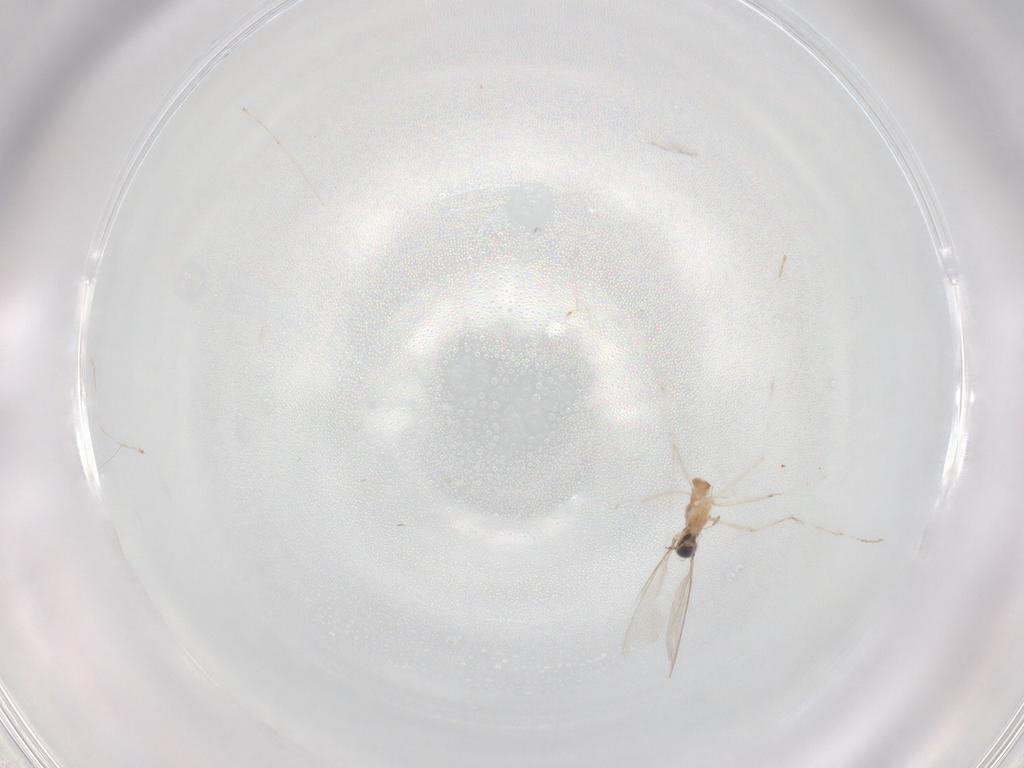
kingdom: Animalia
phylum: Arthropoda
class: Insecta
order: Diptera
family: Cecidomyiidae
